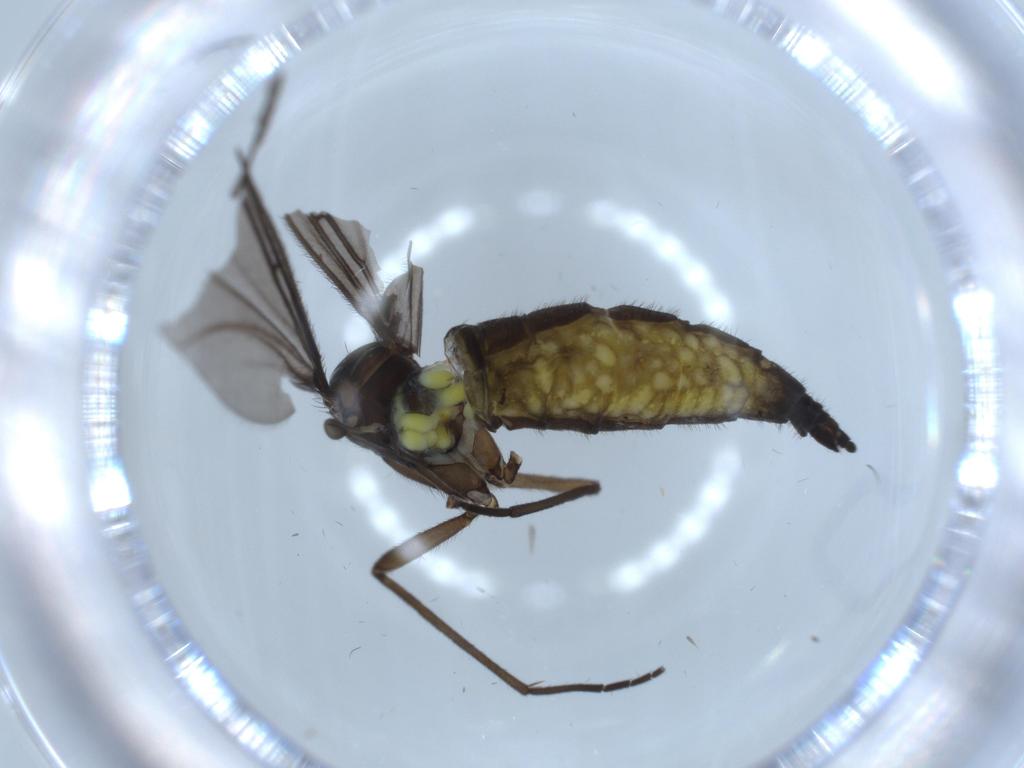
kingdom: Animalia
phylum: Arthropoda
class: Insecta
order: Diptera
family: Sciaridae
